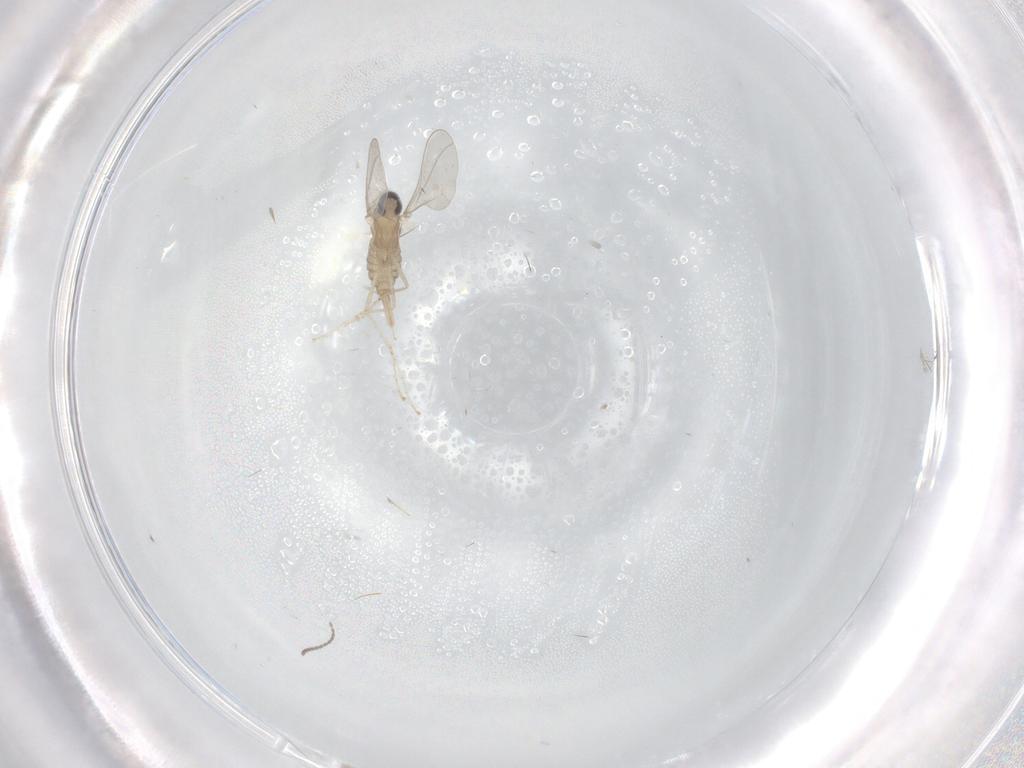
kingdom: Animalia
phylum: Arthropoda
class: Insecta
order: Diptera
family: Cecidomyiidae
